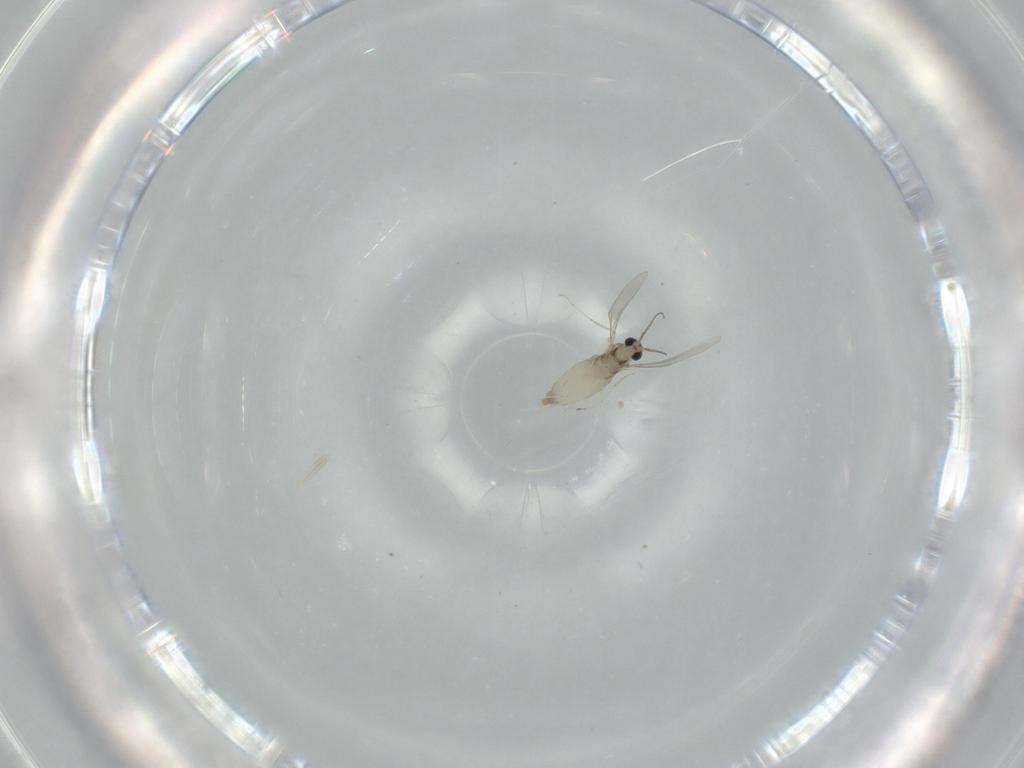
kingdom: Animalia
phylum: Arthropoda
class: Insecta
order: Diptera
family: Cecidomyiidae
